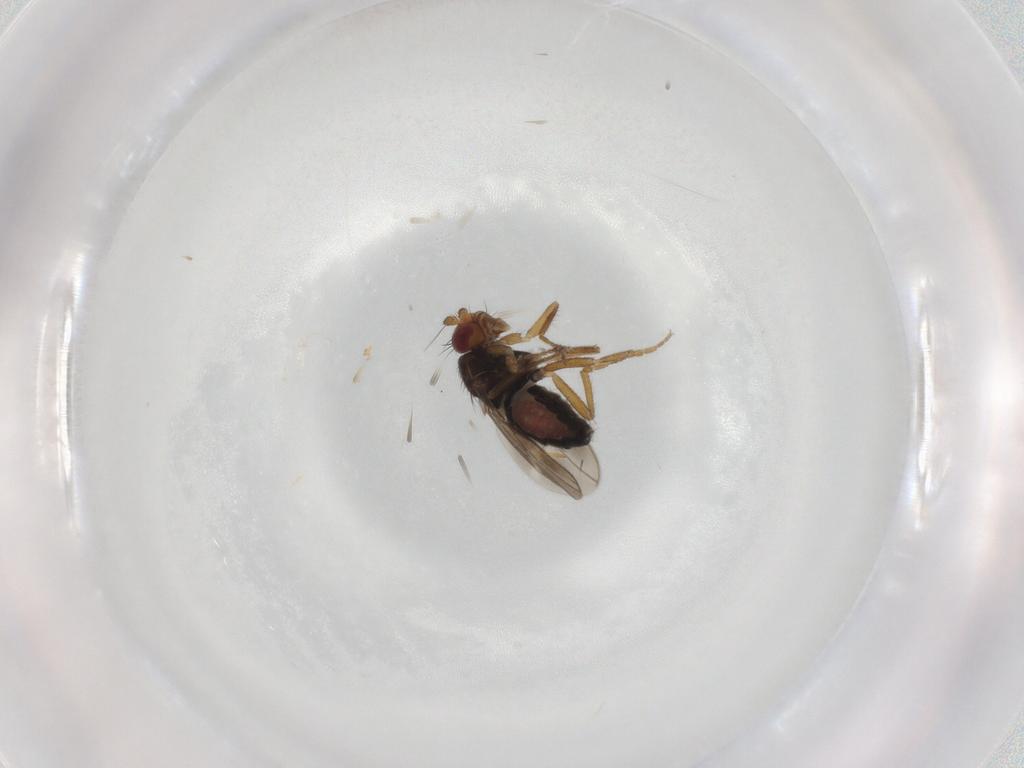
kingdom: Animalia
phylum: Arthropoda
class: Insecta
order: Diptera
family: Sphaeroceridae
